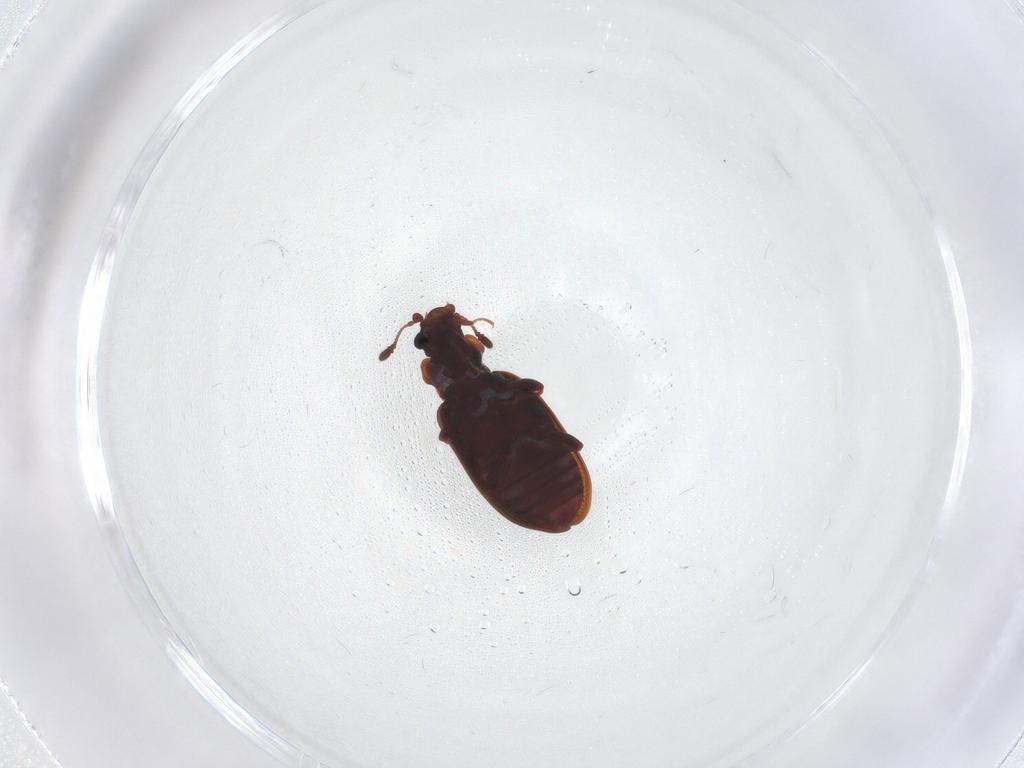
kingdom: Animalia
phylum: Arthropoda
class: Insecta
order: Coleoptera
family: Latridiidae
